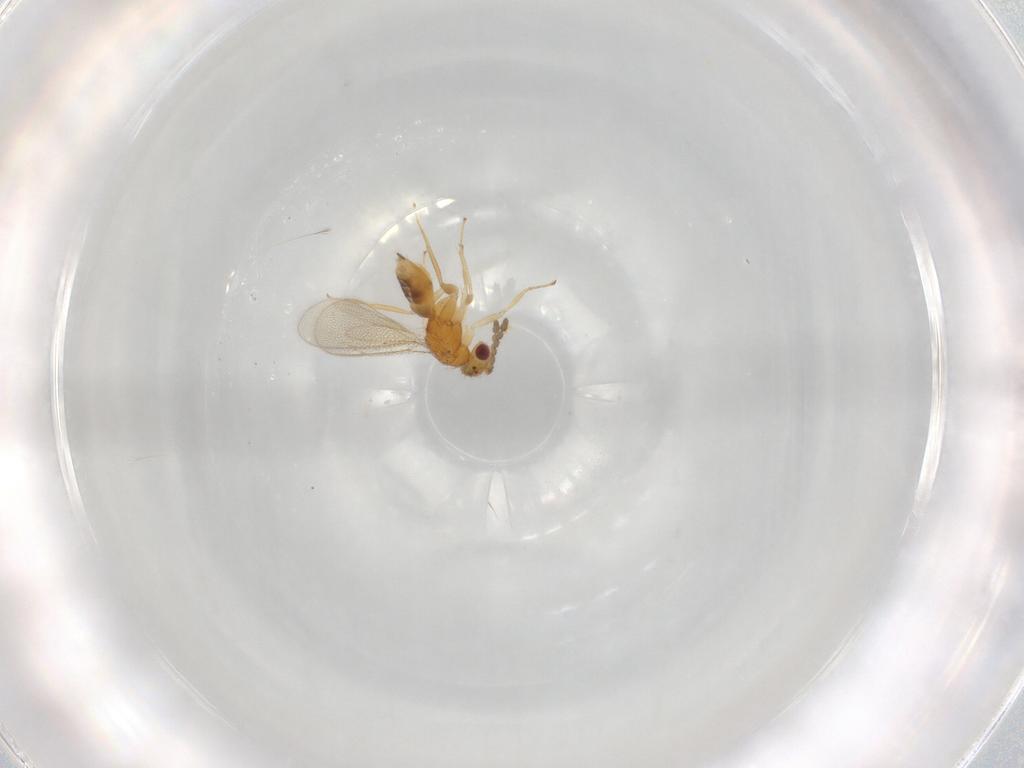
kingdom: Animalia
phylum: Arthropoda
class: Insecta
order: Hymenoptera
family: Eulophidae
